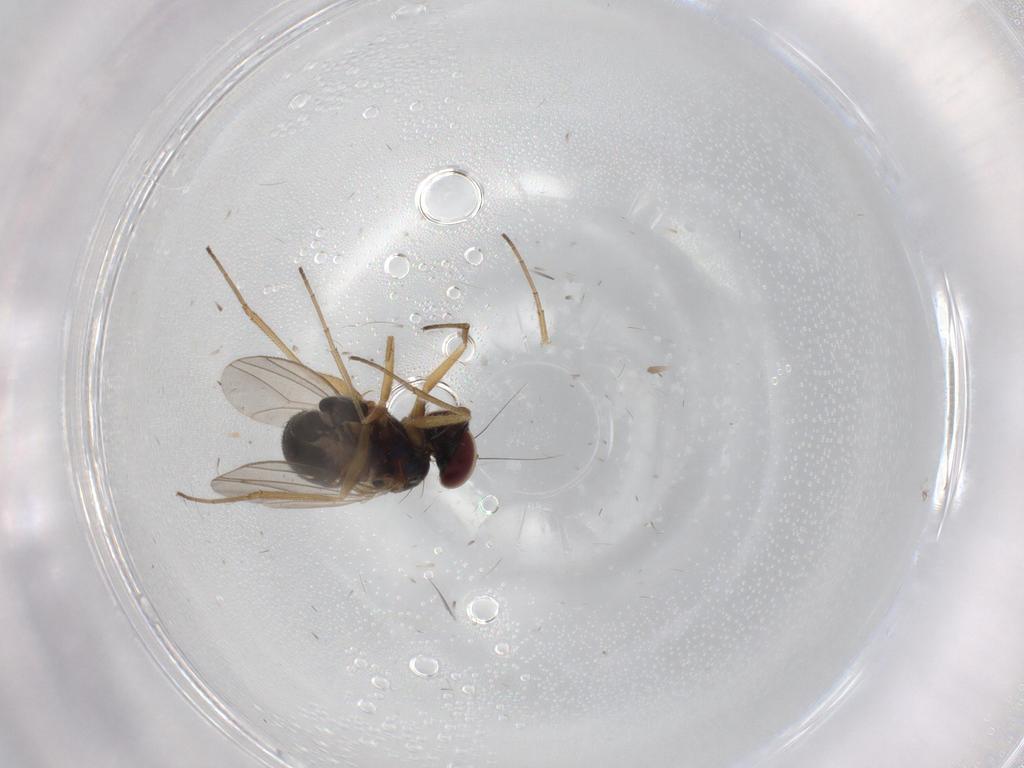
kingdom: Animalia
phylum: Arthropoda
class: Insecta
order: Diptera
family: Dolichopodidae
